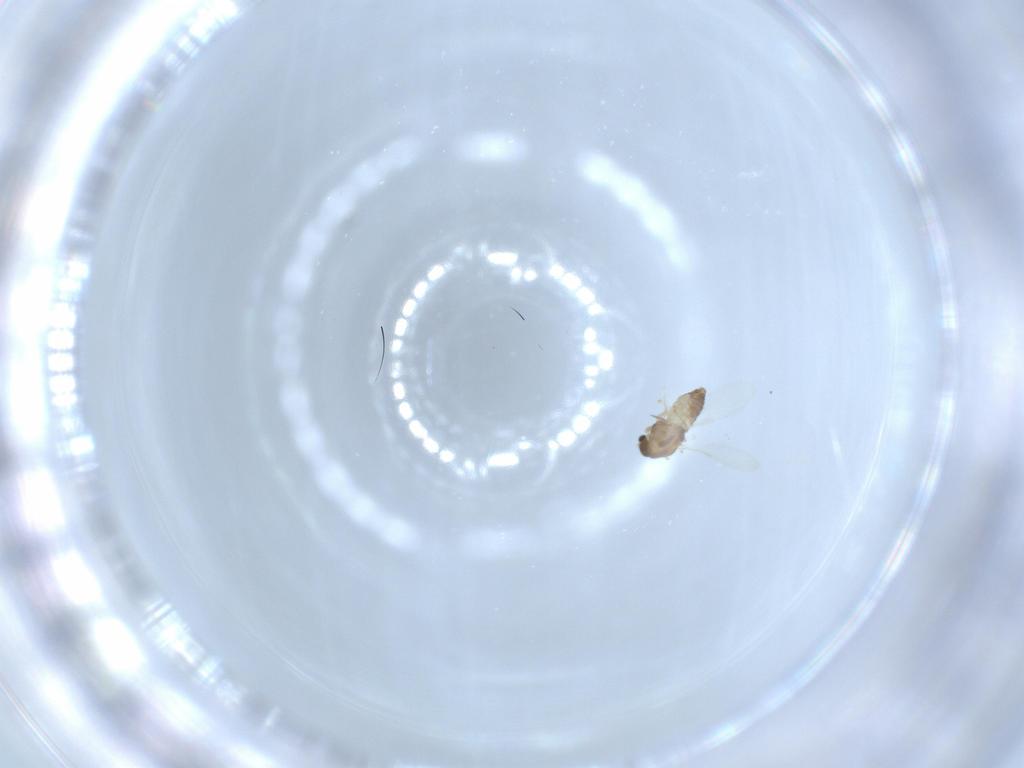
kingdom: Animalia
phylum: Arthropoda
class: Insecta
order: Diptera
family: Chironomidae
